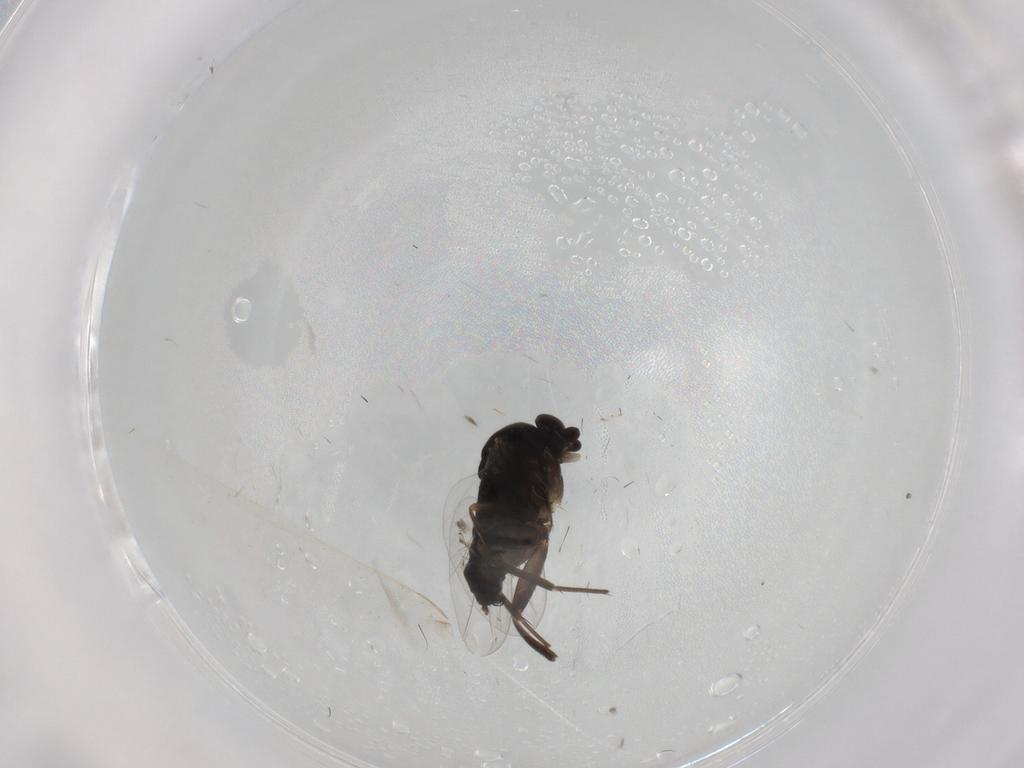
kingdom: Animalia
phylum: Arthropoda
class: Insecta
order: Diptera
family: Phoridae
